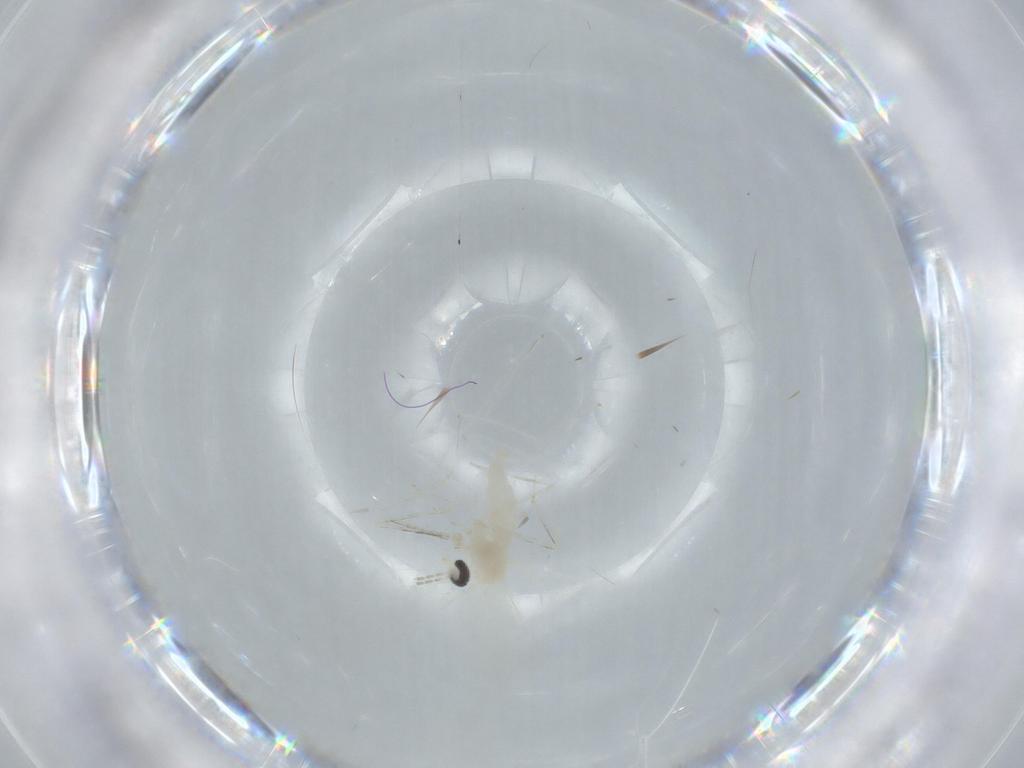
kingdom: Animalia
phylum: Arthropoda
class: Insecta
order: Diptera
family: Cecidomyiidae
